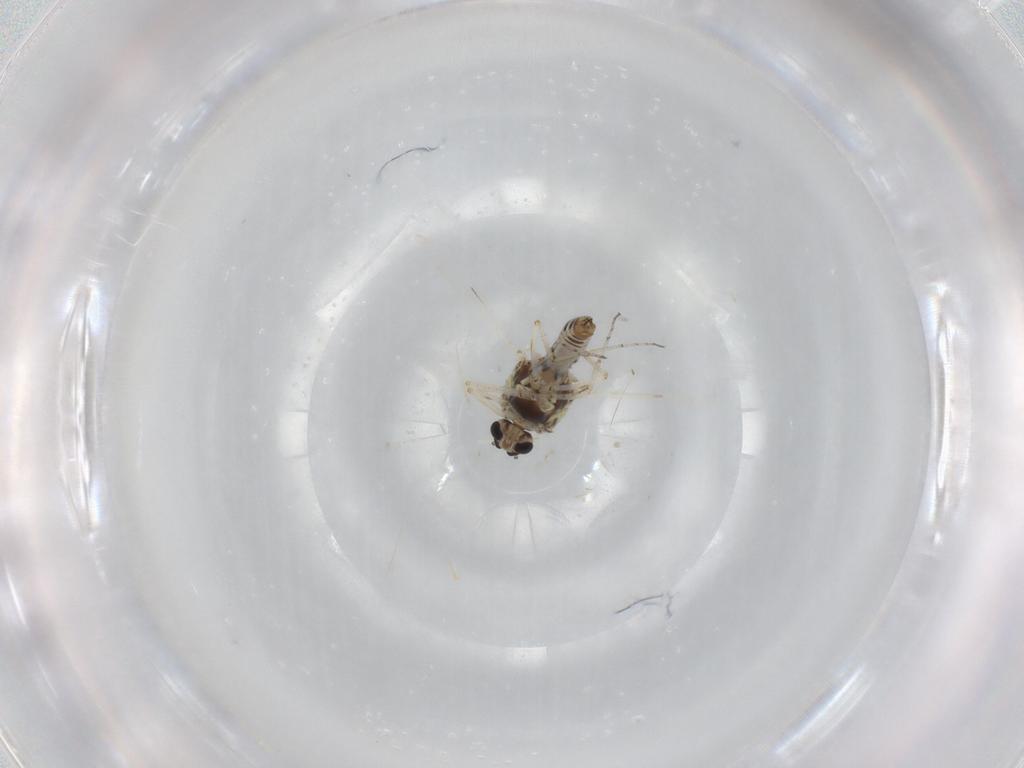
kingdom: Animalia
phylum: Arthropoda
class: Insecta
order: Diptera
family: Ceratopogonidae
